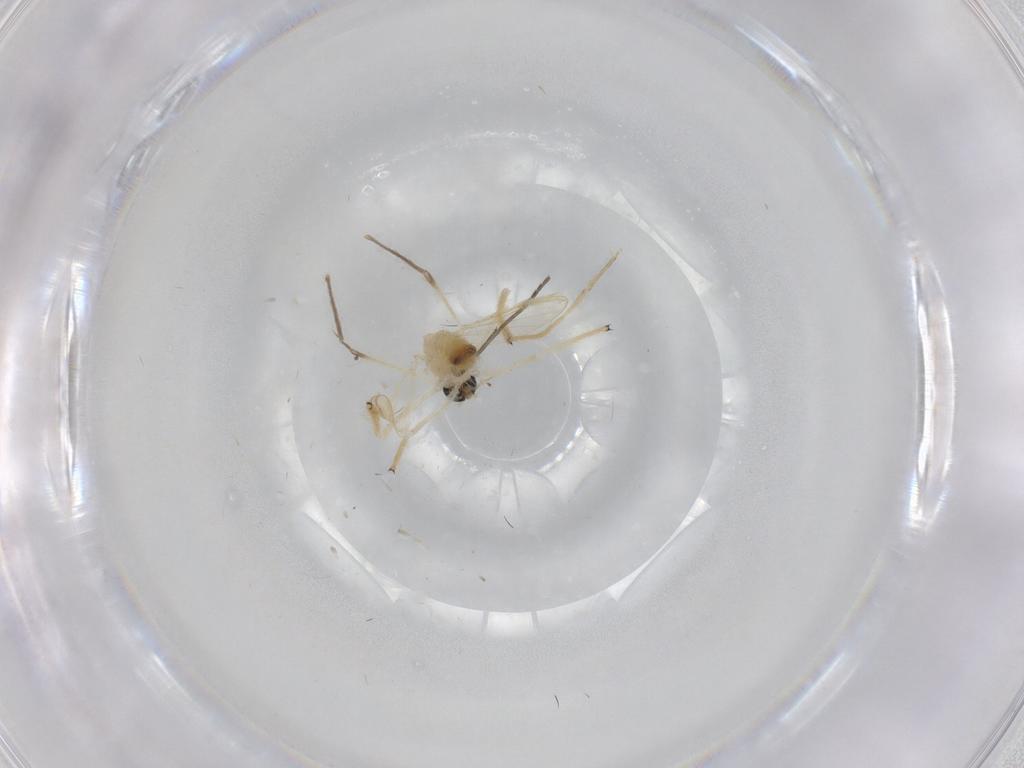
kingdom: Animalia
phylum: Arthropoda
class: Insecta
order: Diptera
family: Chironomidae
